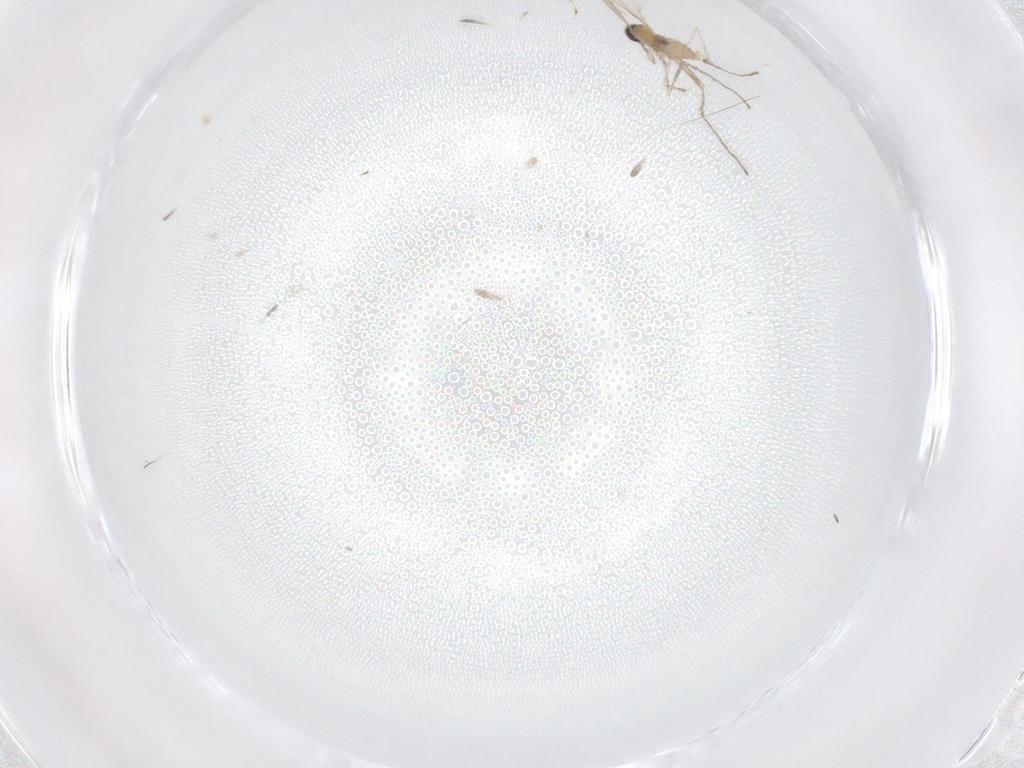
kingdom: Animalia
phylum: Arthropoda
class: Insecta
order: Diptera
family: Cecidomyiidae
